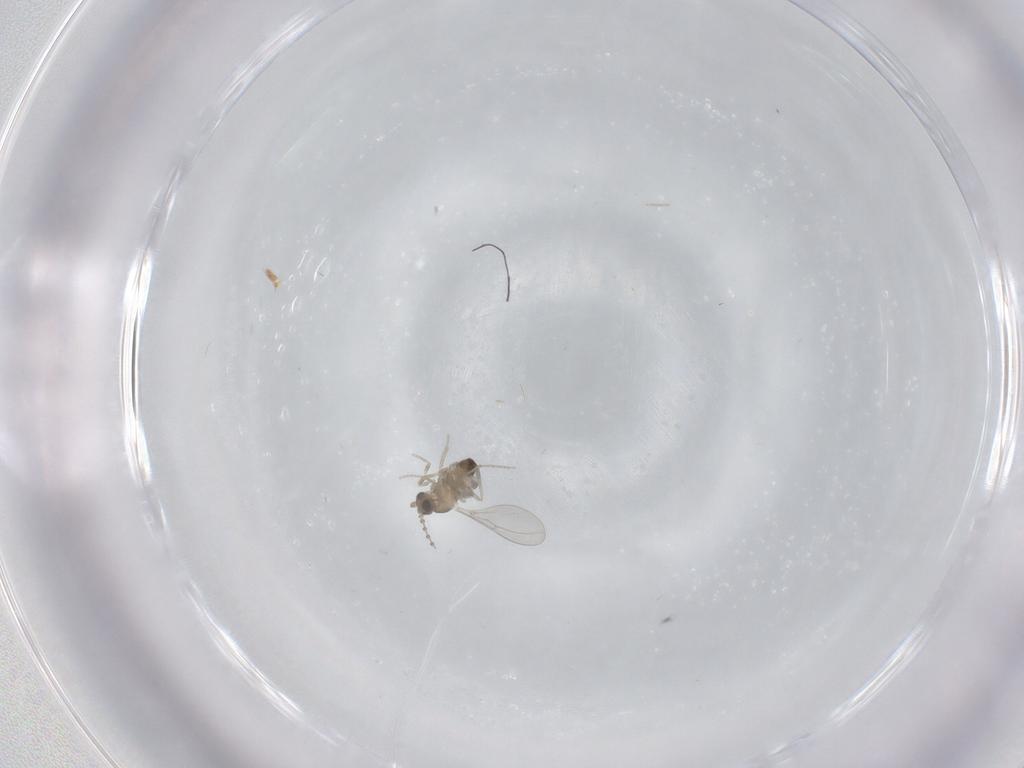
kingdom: Animalia
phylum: Arthropoda
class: Insecta
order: Diptera
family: Cecidomyiidae
